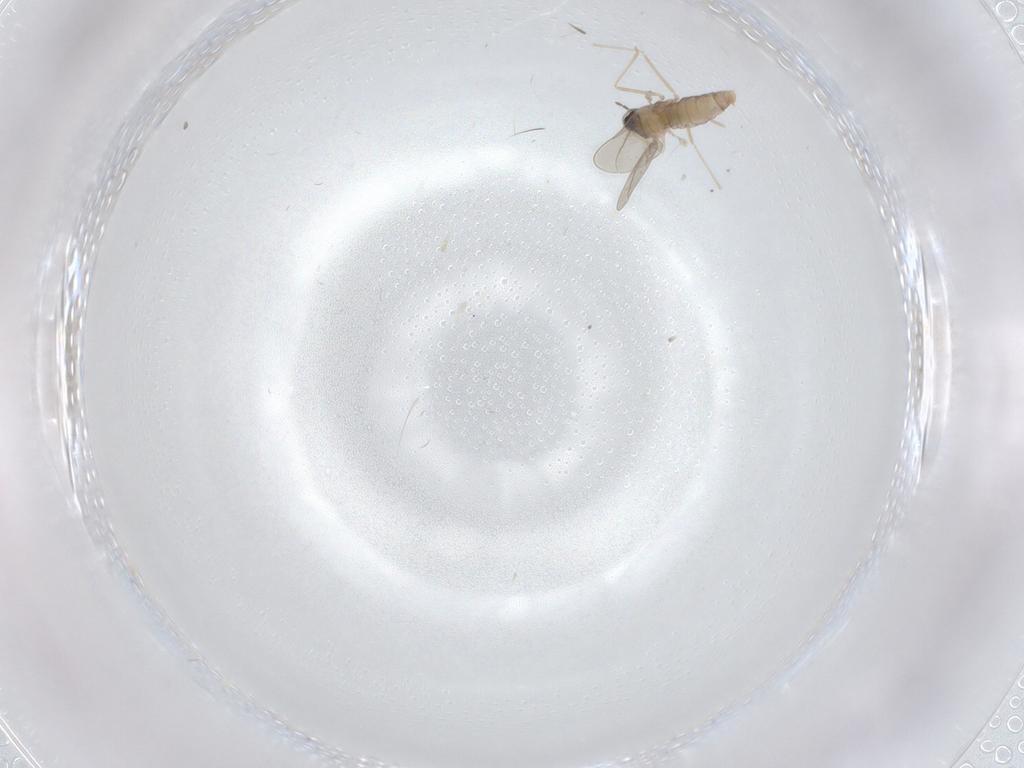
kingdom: Animalia
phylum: Arthropoda
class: Insecta
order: Diptera
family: Cecidomyiidae
